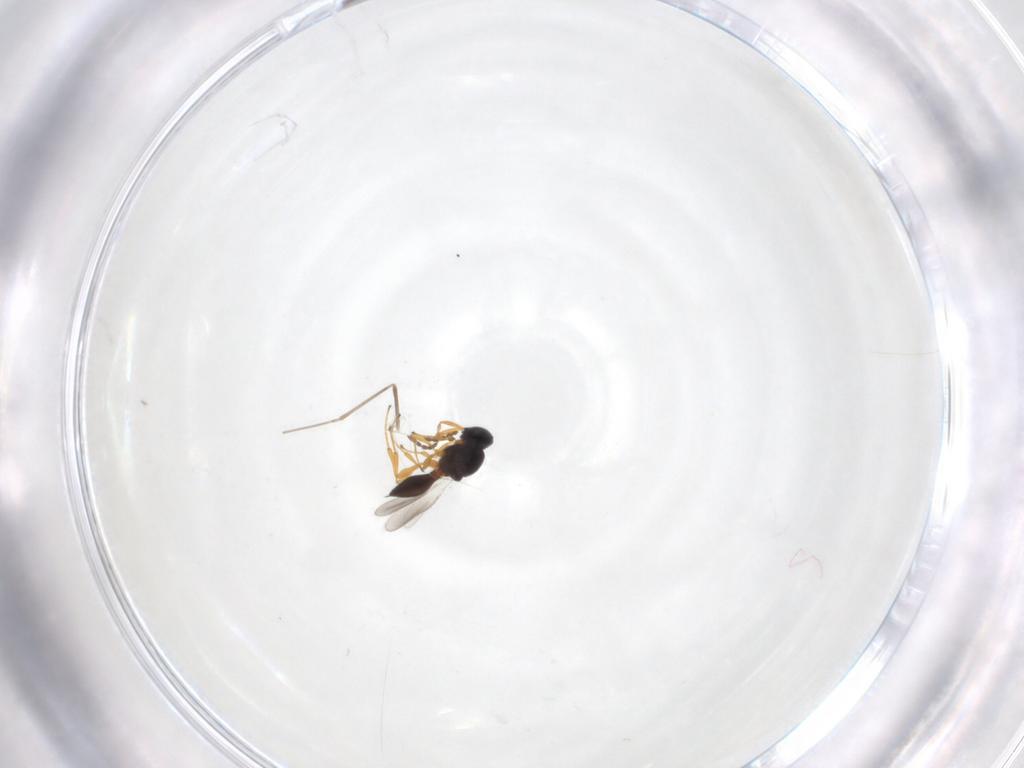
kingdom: Animalia
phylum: Arthropoda
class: Insecta
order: Hymenoptera
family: Platygastridae
